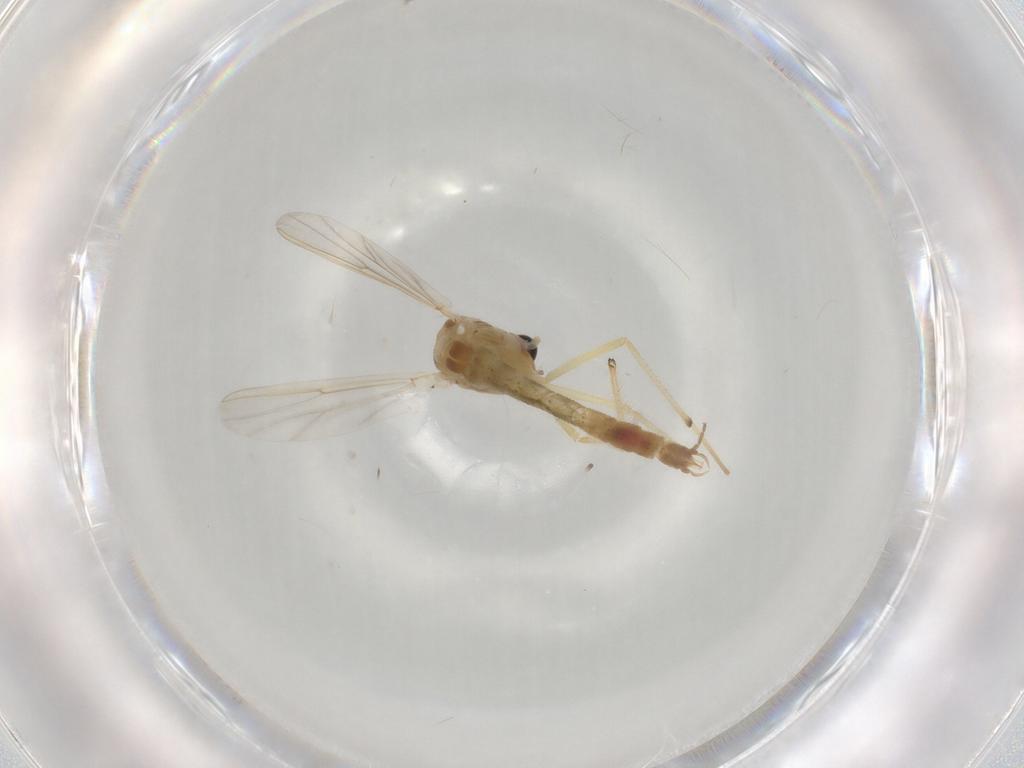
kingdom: Animalia
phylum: Arthropoda
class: Insecta
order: Diptera
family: Chironomidae
